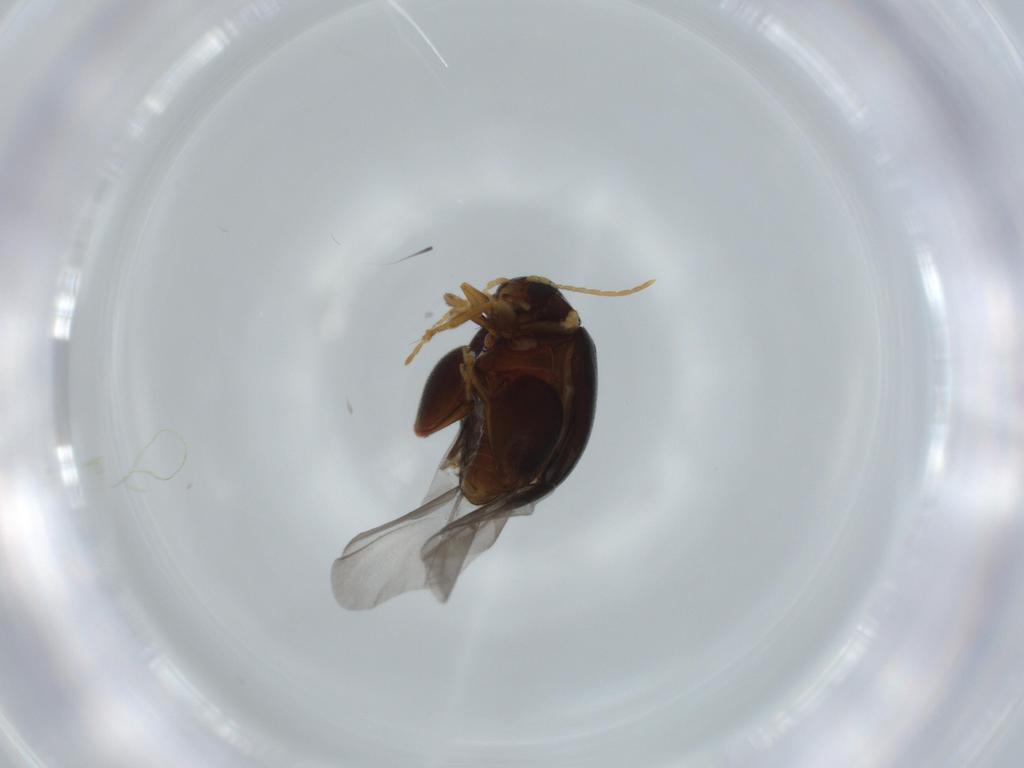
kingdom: Animalia
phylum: Arthropoda
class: Insecta
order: Coleoptera
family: Chrysomelidae
